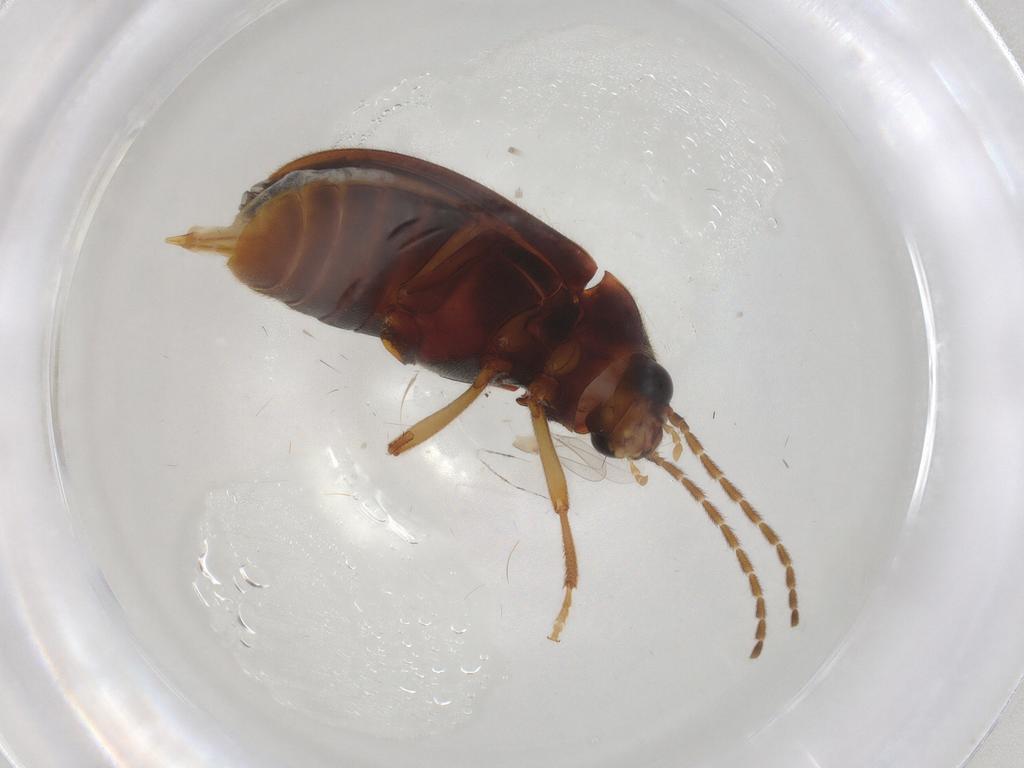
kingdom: Animalia
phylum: Arthropoda
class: Insecta
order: Coleoptera
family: Ptilodactylidae
